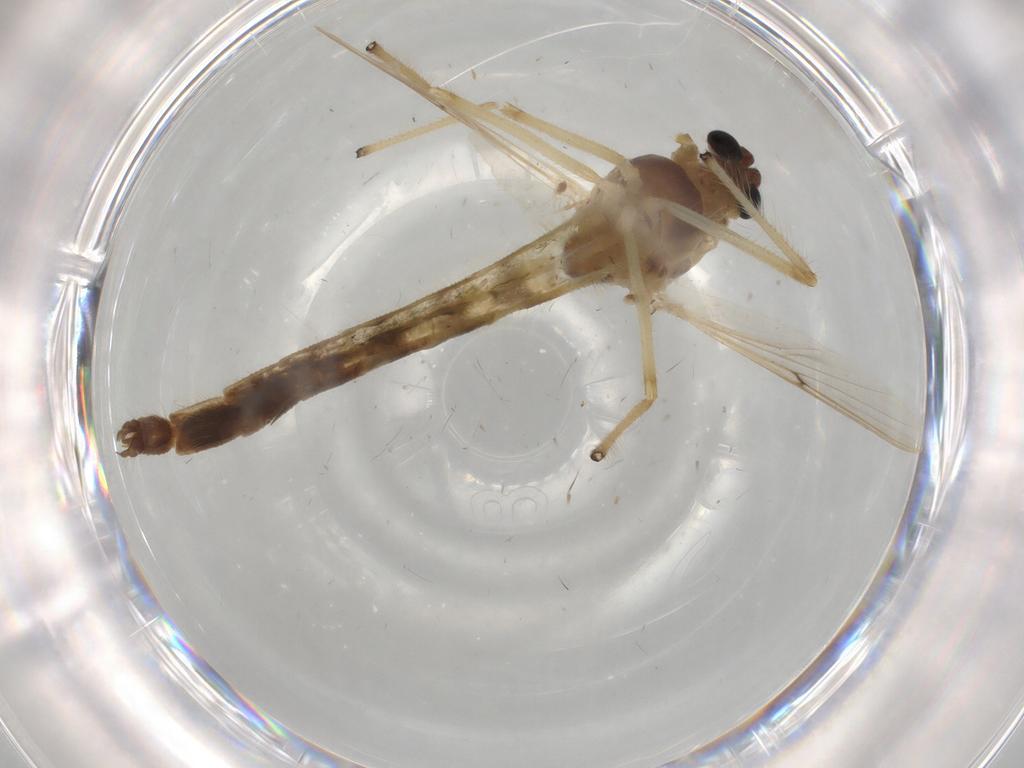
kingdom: Animalia
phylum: Arthropoda
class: Insecta
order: Diptera
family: Chironomidae
